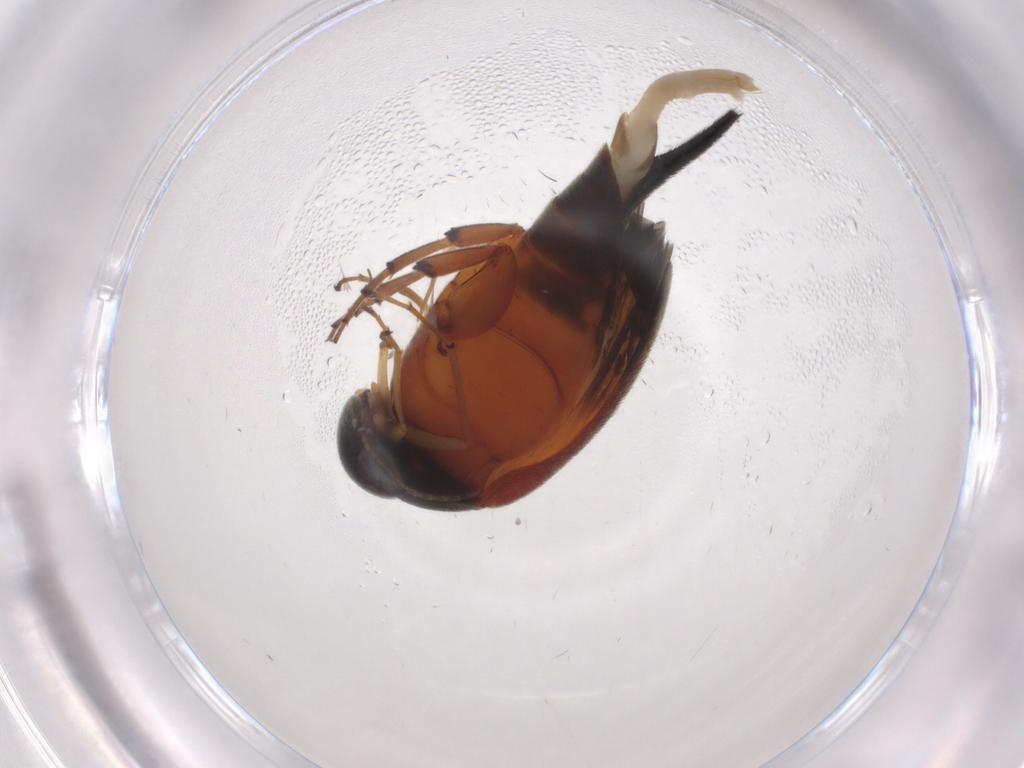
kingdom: Animalia
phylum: Arthropoda
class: Insecta
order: Coleoptera
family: Mordellidae
